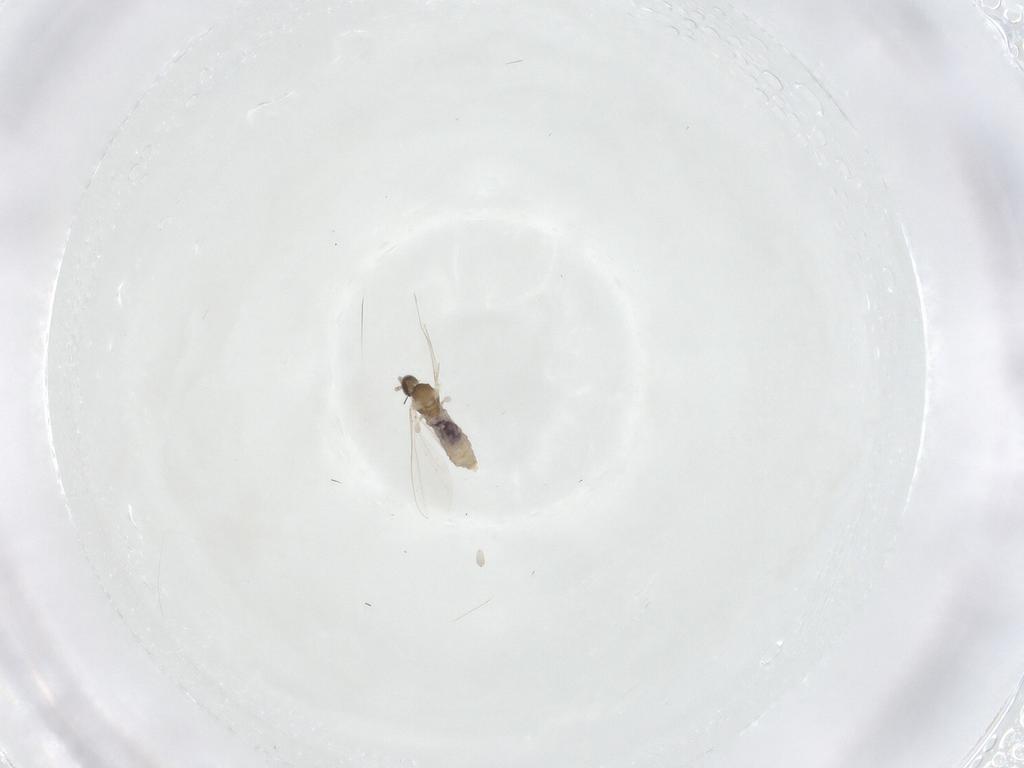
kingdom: Animalia
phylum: Arthropoda
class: Insecta
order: Diptera
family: Cecidomyiidae
